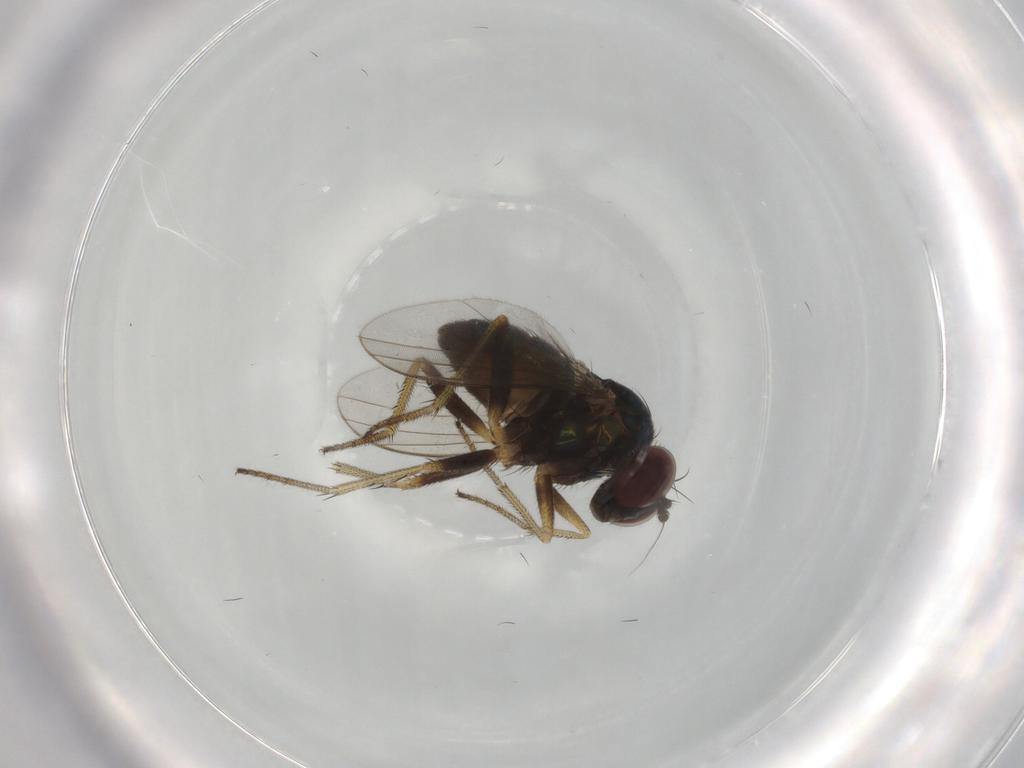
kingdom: Animalia
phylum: Arthropoda
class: Insecta
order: Diptera
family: Dolichopodidae
